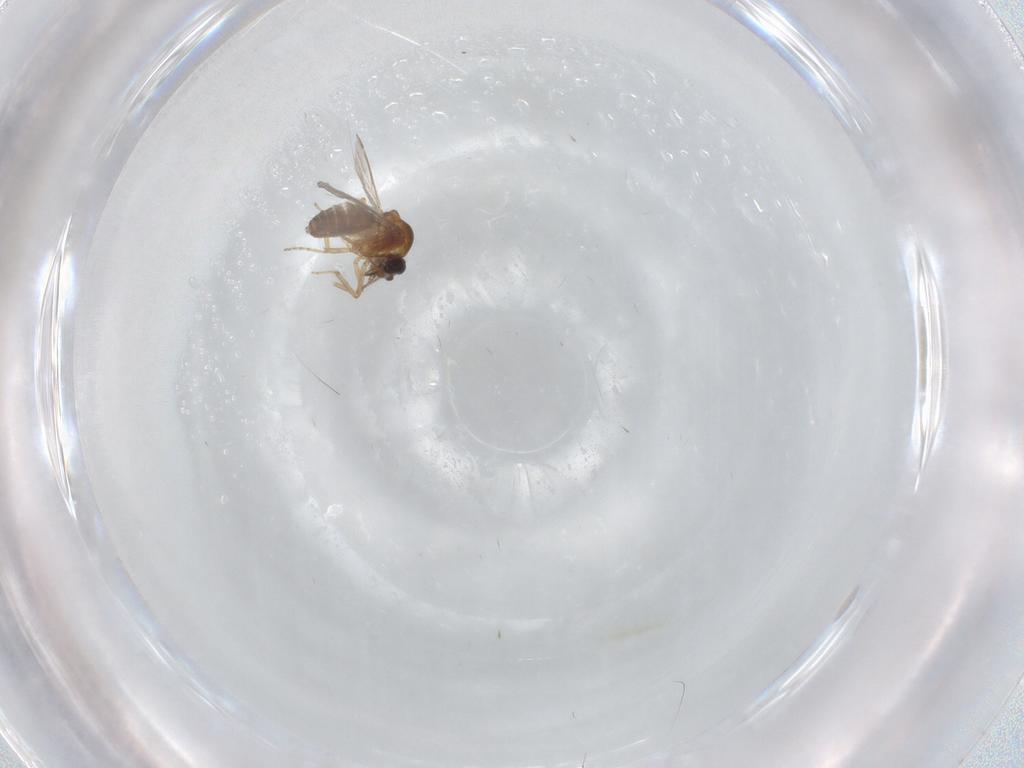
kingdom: Animalia
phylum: Arthropoda
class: Insecta
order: Diptera
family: Ceratopogonidae
